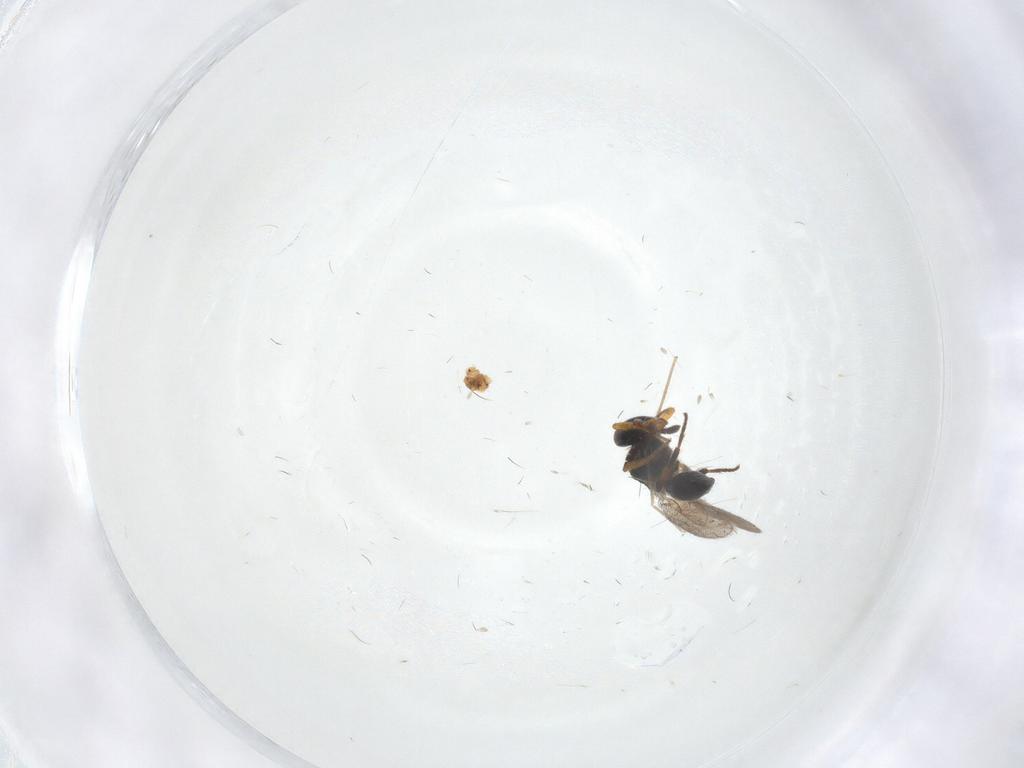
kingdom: Animalia
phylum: Arthropoda
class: Insecta
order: Hymenoptera
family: Platygastridae
